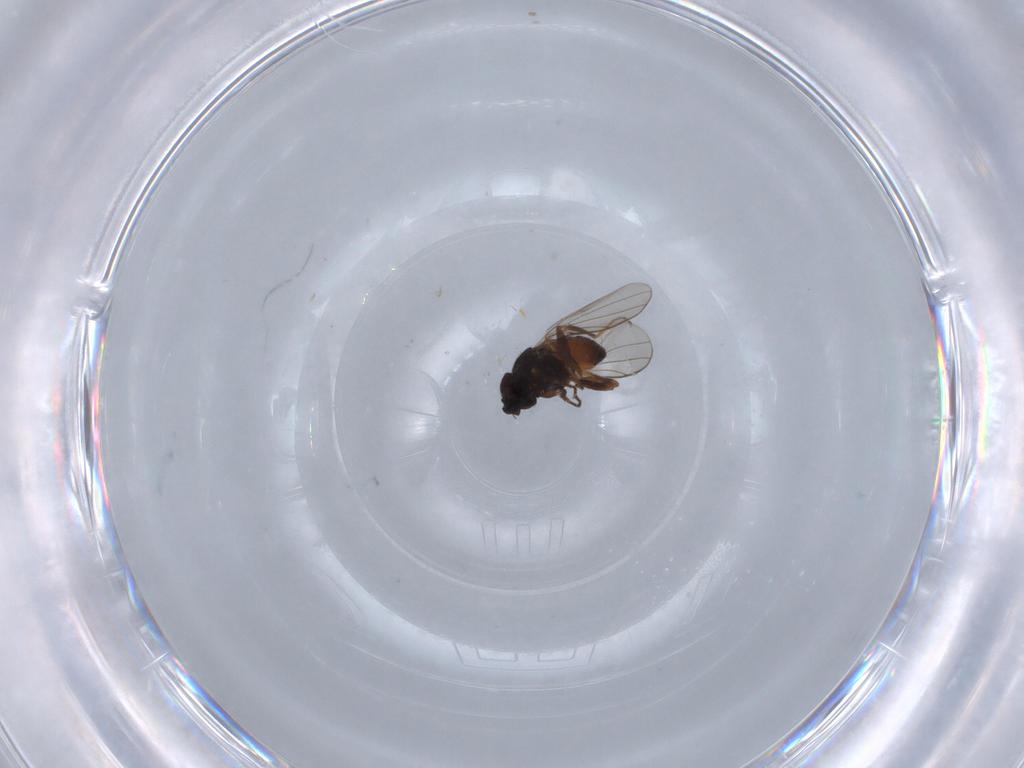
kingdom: Animalia
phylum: Arthropoda
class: Insecta
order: Diptera
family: Chloropidae
